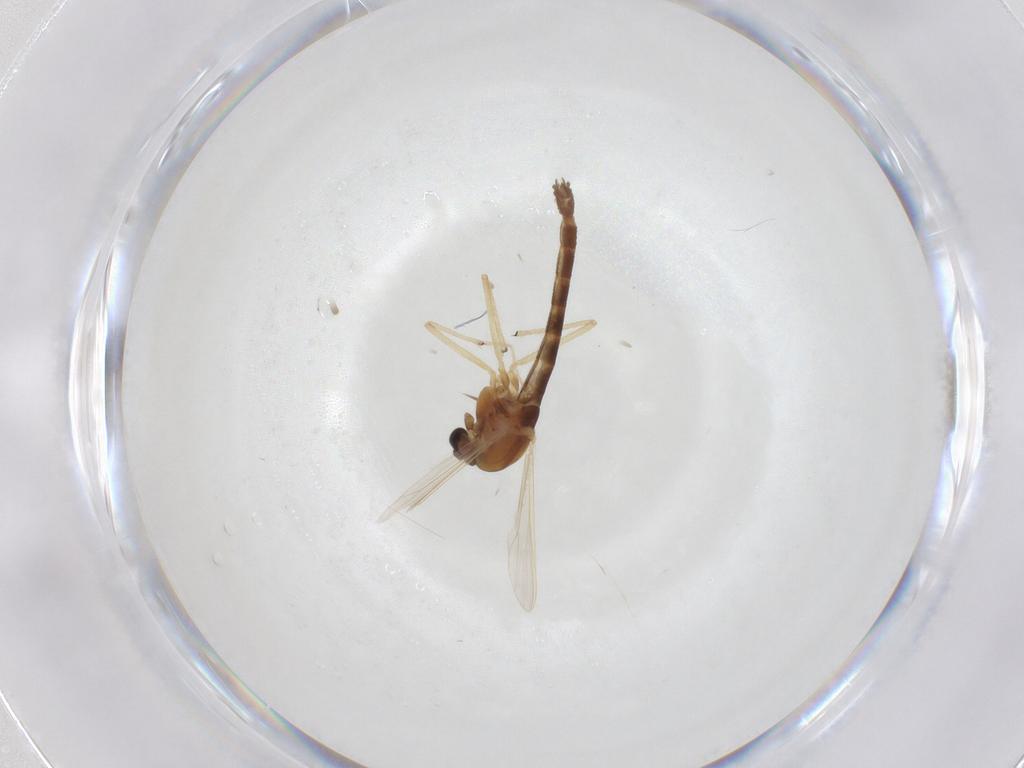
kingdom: Animalia
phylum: Arthropoda
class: Insecta
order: Diptera
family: Chironomidae
